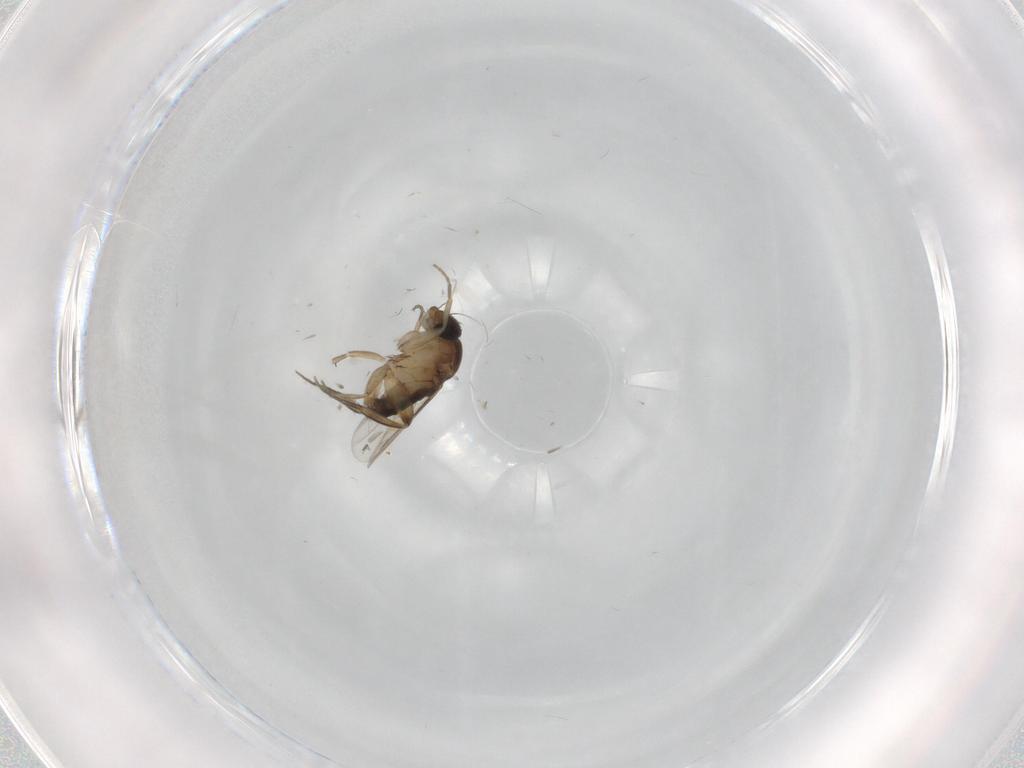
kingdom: Animalia
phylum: Arthropoda
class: Insecta
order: Diptera
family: Phoridae
